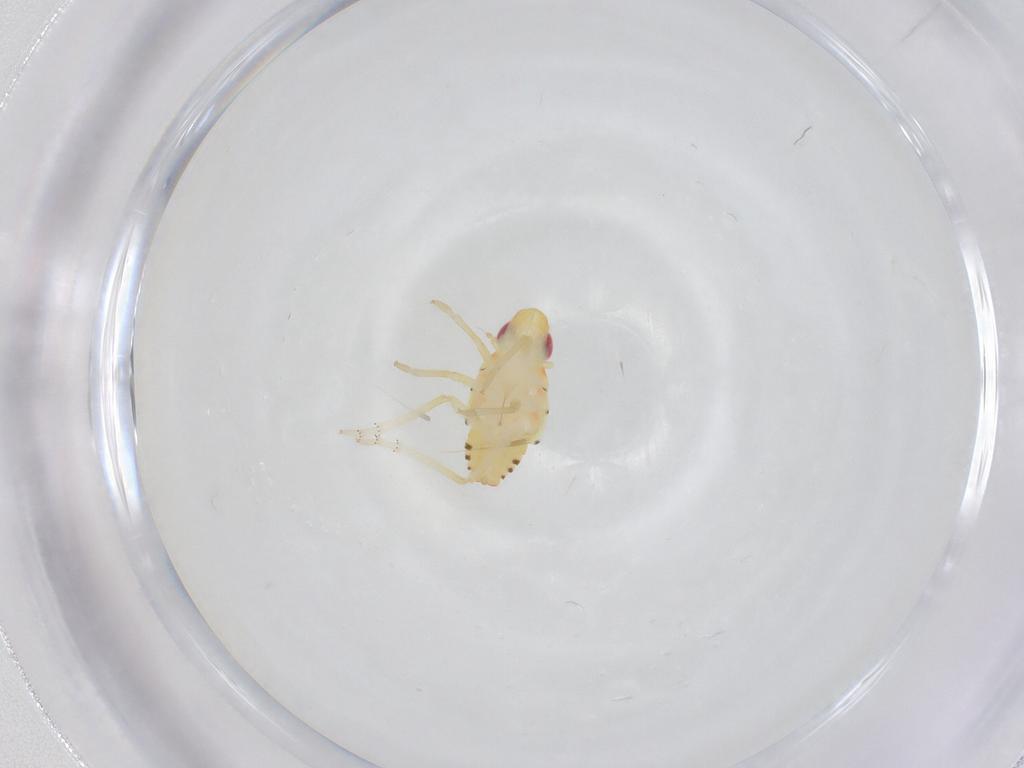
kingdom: Animalia
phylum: Arthropoda
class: Insecta
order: Hemiptera
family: Tropiduchidae
